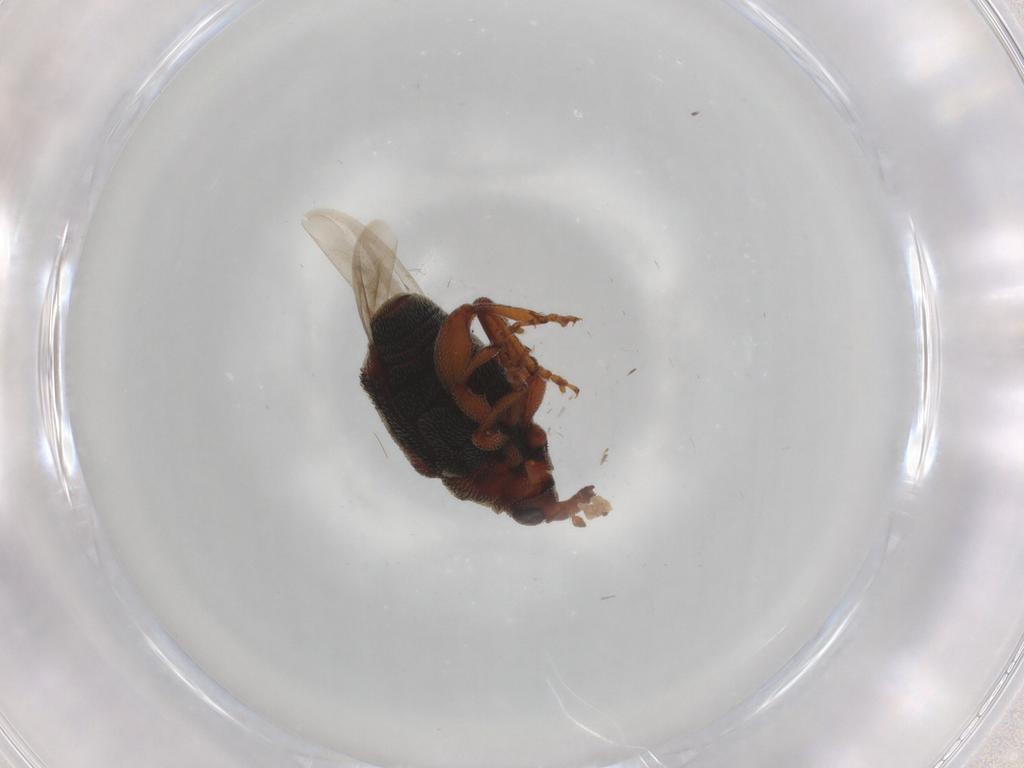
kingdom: Animalia
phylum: Arthropoda
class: Insecta
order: Coleoptera
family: Curculionidae
